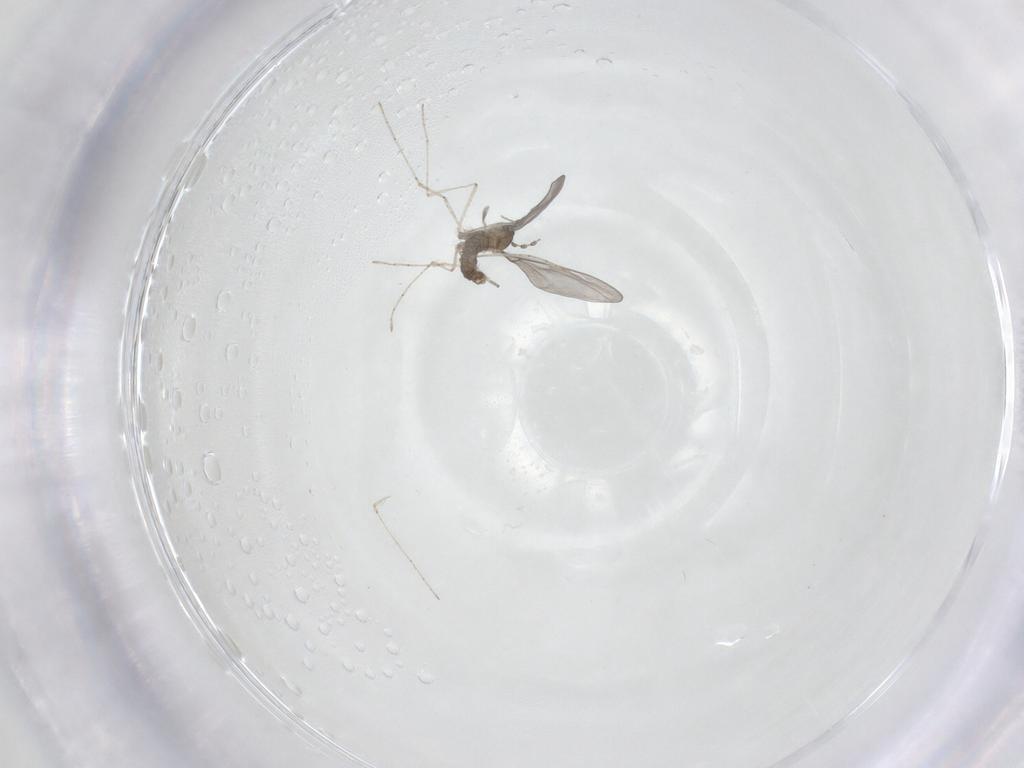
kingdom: Animalia
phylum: Arthropoda
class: Insecta
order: Diptera
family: Cecidomyiidae
